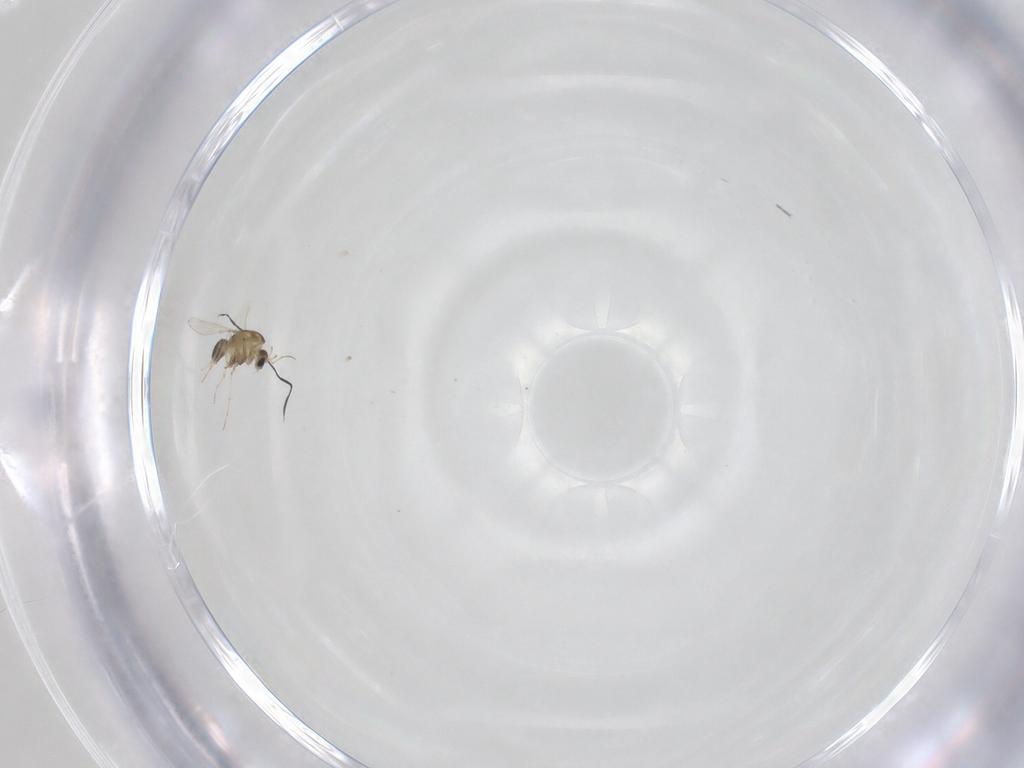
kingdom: Animalia
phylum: Arthropoda
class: Insecta
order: Diptera
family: Chironomidae
